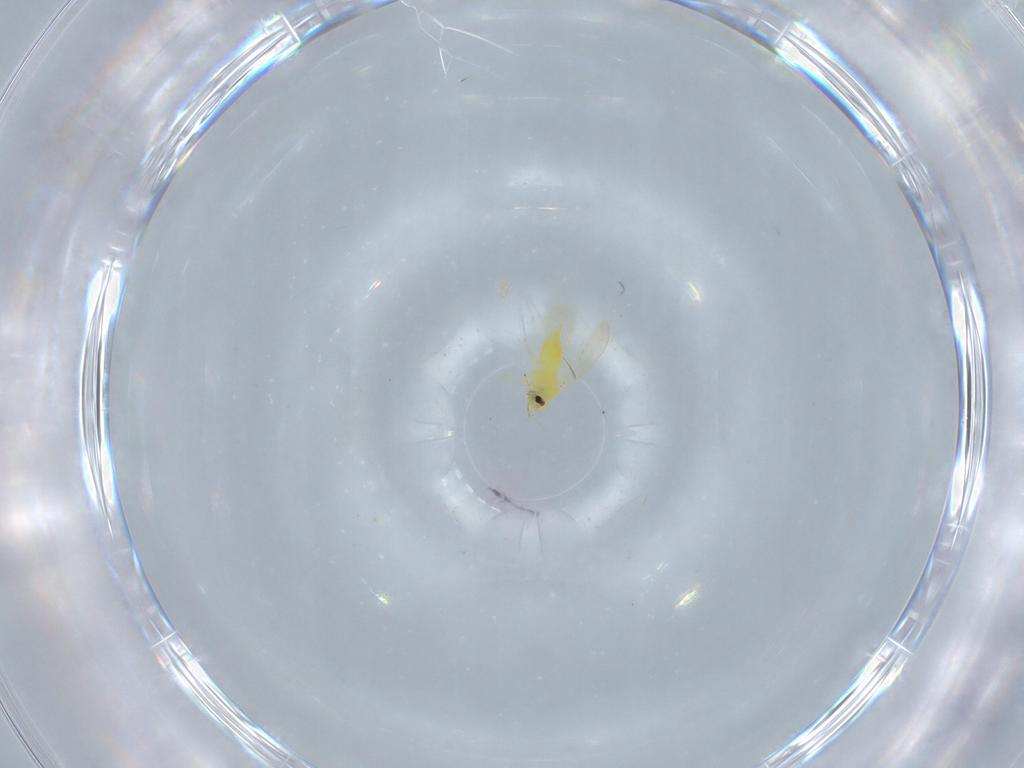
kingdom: Animalia
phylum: Arthropoda
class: Insecta
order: Hemiptera
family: Aleyrodidae
